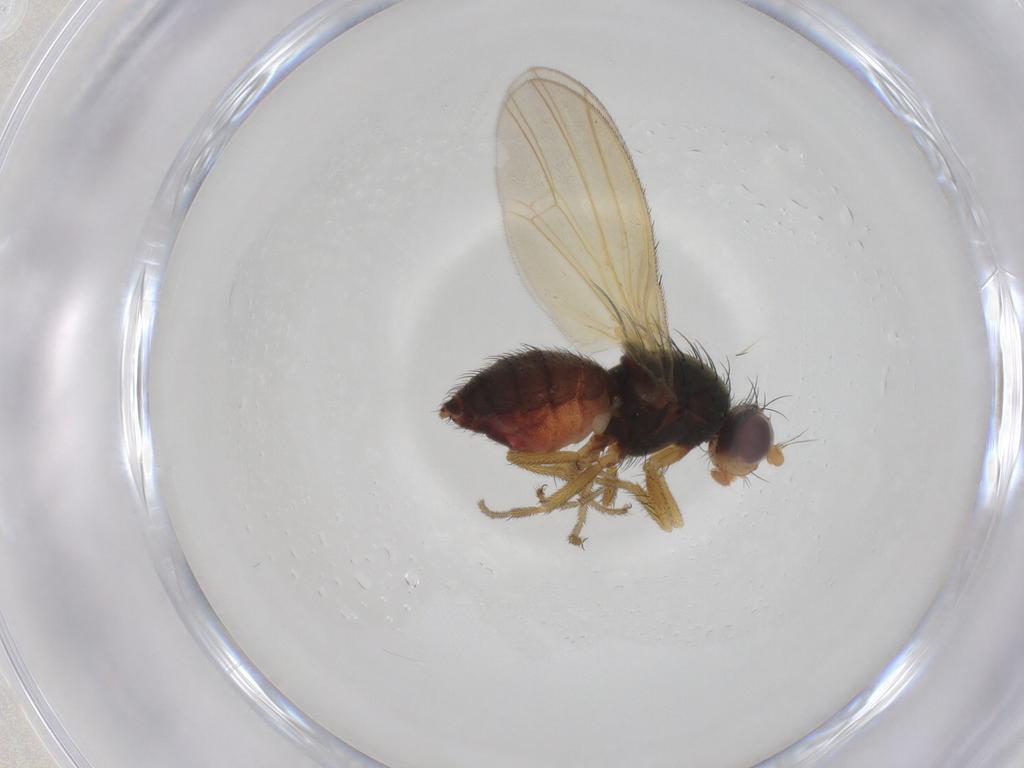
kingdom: Animalia
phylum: Arthropoda
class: Insecta
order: Diptera
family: Heleomyzidae
